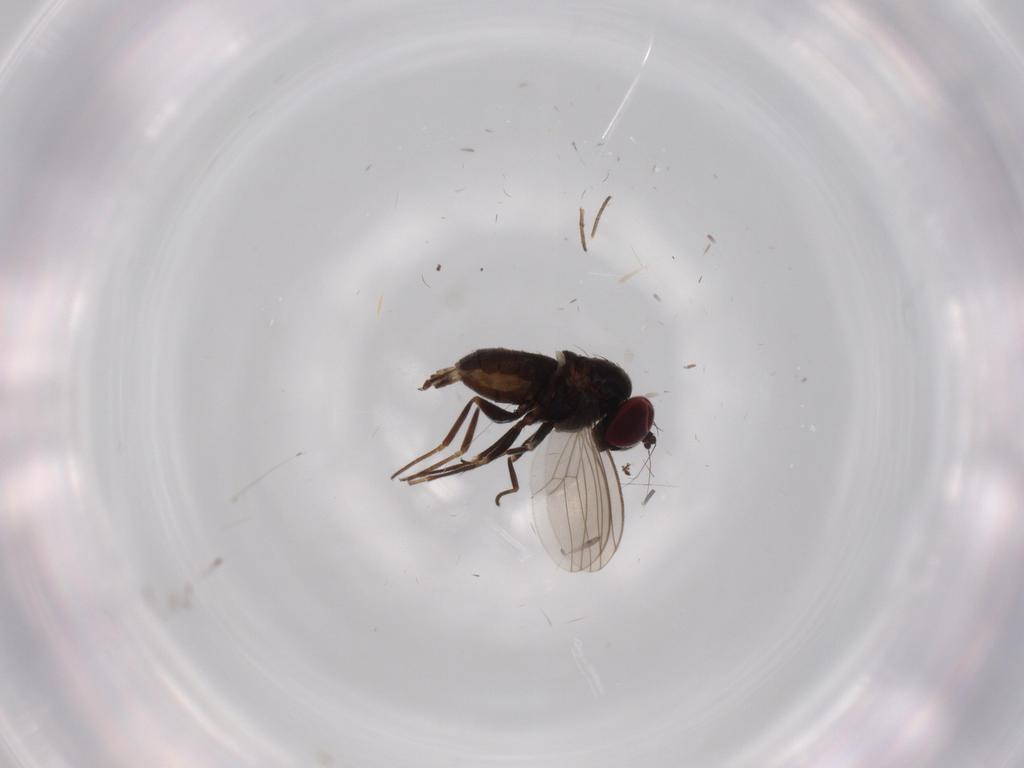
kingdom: Animalia
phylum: Arthropoda
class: Insecta
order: Diptera
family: Dolichopodidae
